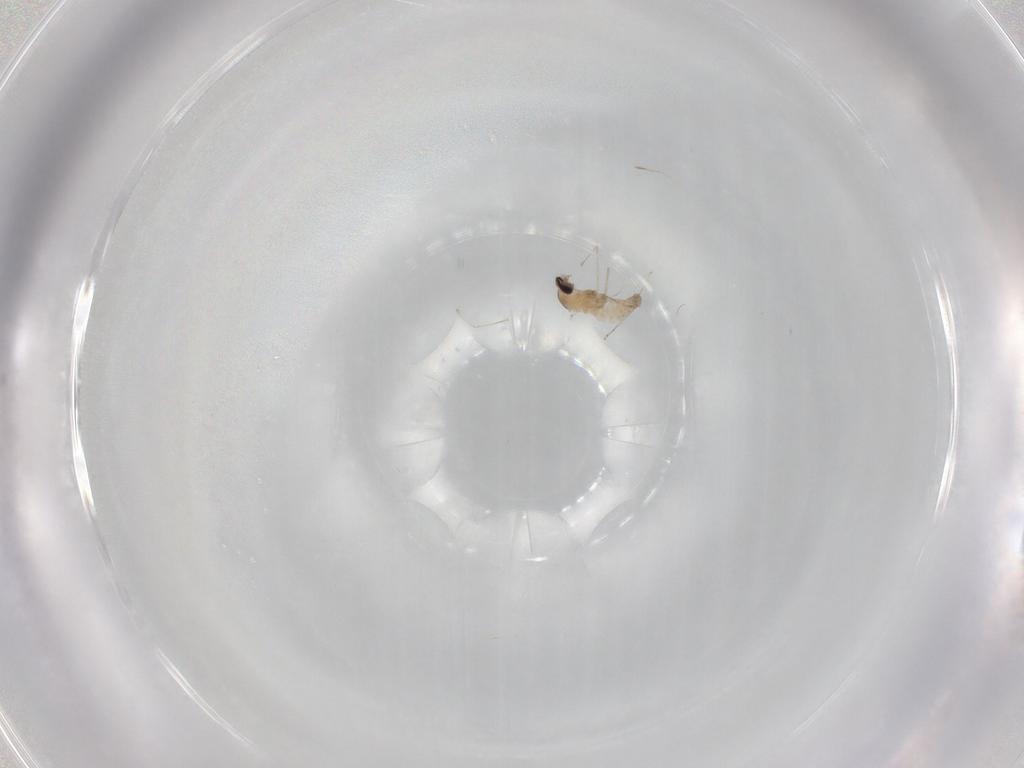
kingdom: Animalia
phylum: Arthropoda
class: Insecta
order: Diptera
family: Cecidomyiidae
